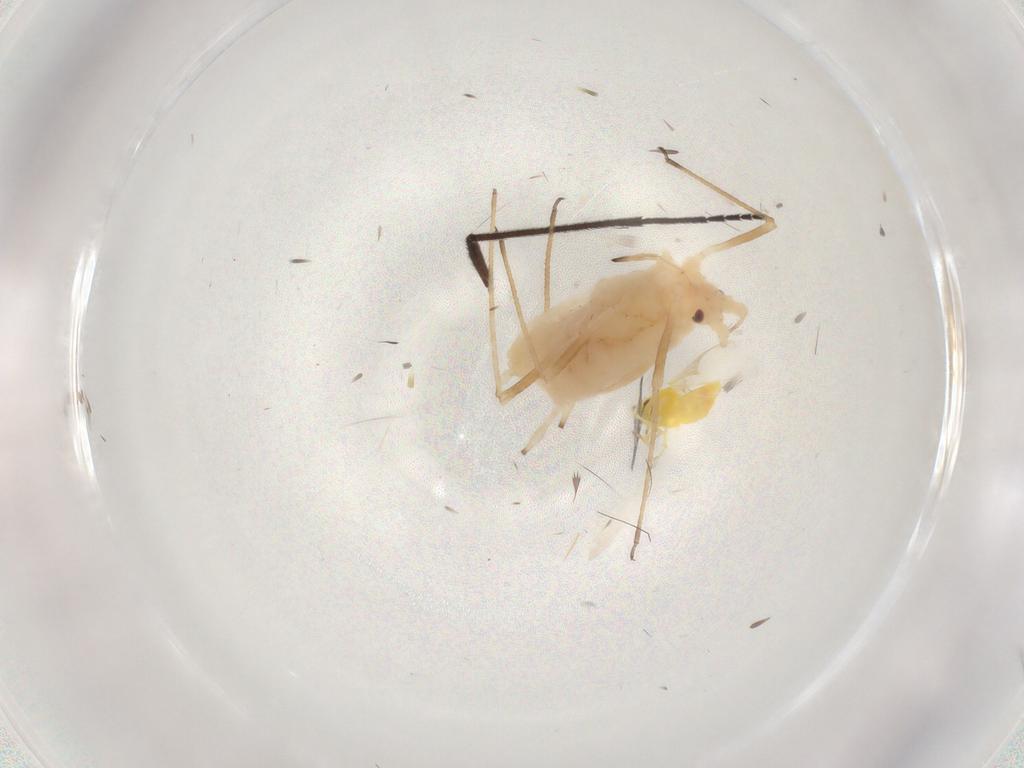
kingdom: Animalia
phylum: Arthropoda
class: Insecta
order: Hemiptera
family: Aphididae
